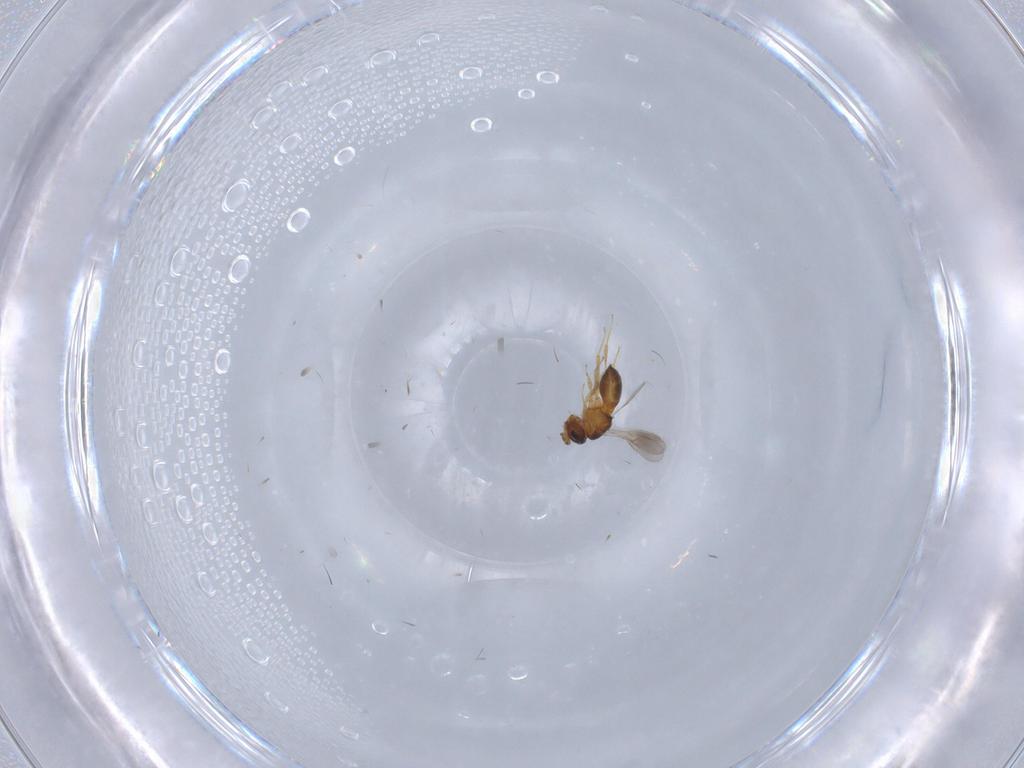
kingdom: Animalia
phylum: Arthropoda
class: Insecta
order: Hymenoptera
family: Scelionidae
